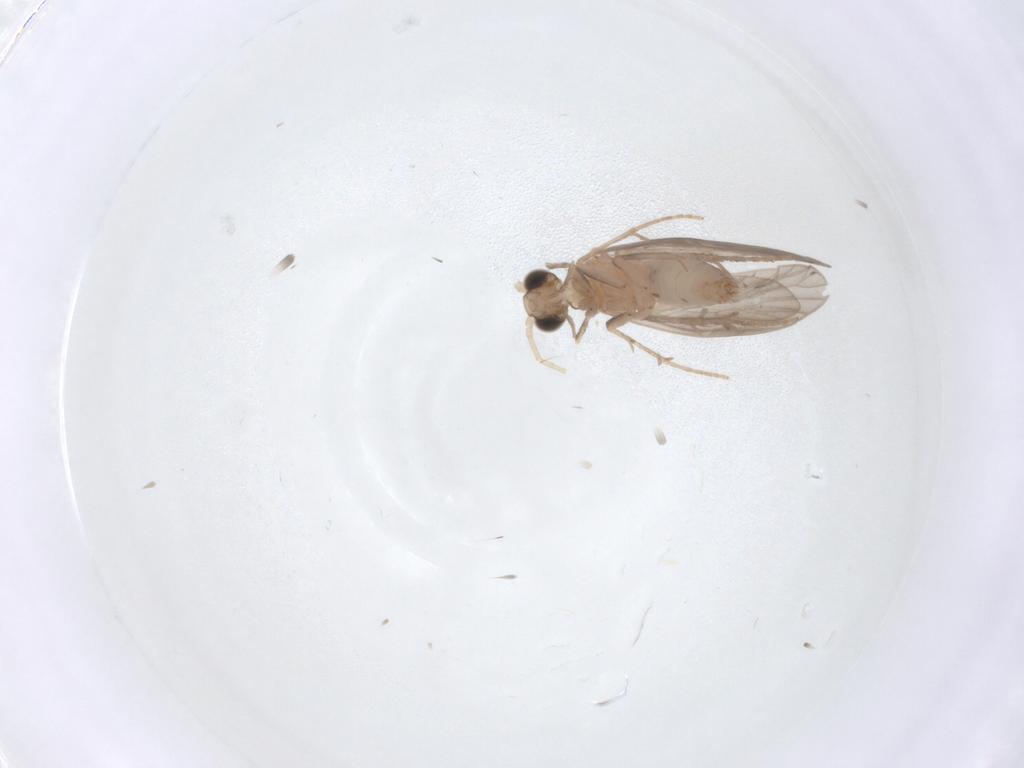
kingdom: Animalia
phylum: Arthropoda
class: Insecta
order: Trichoptera
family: Psychomyiidae
